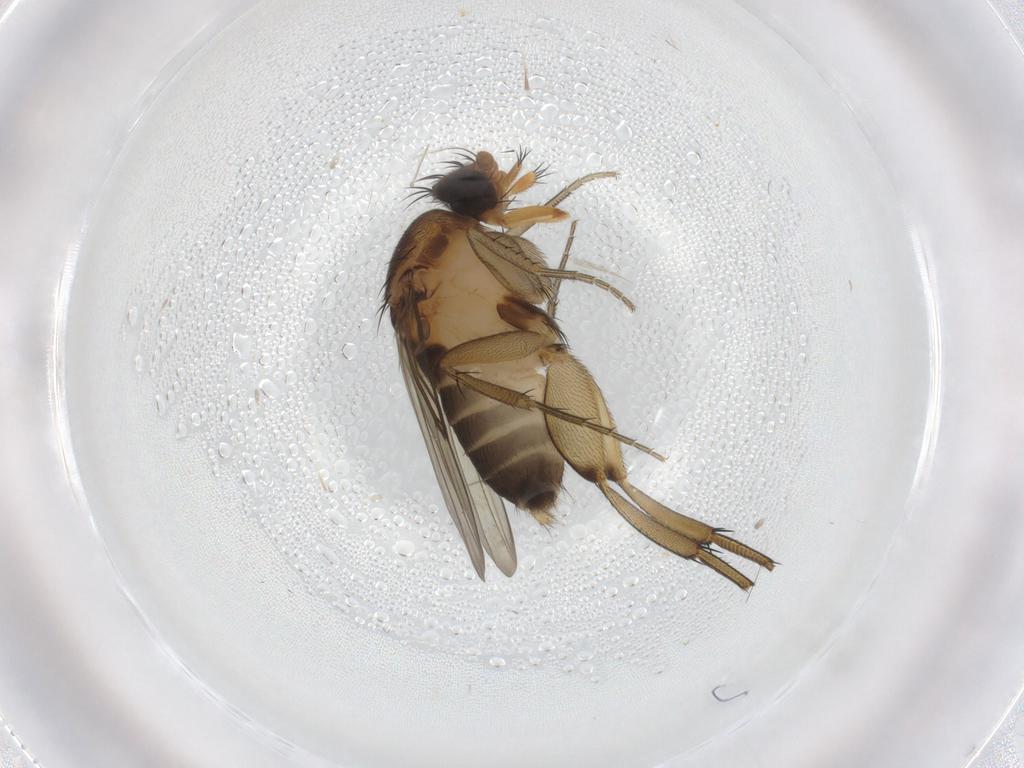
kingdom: Animalia
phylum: Arthropoda
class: Insecta
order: Diptera
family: Phoridae
